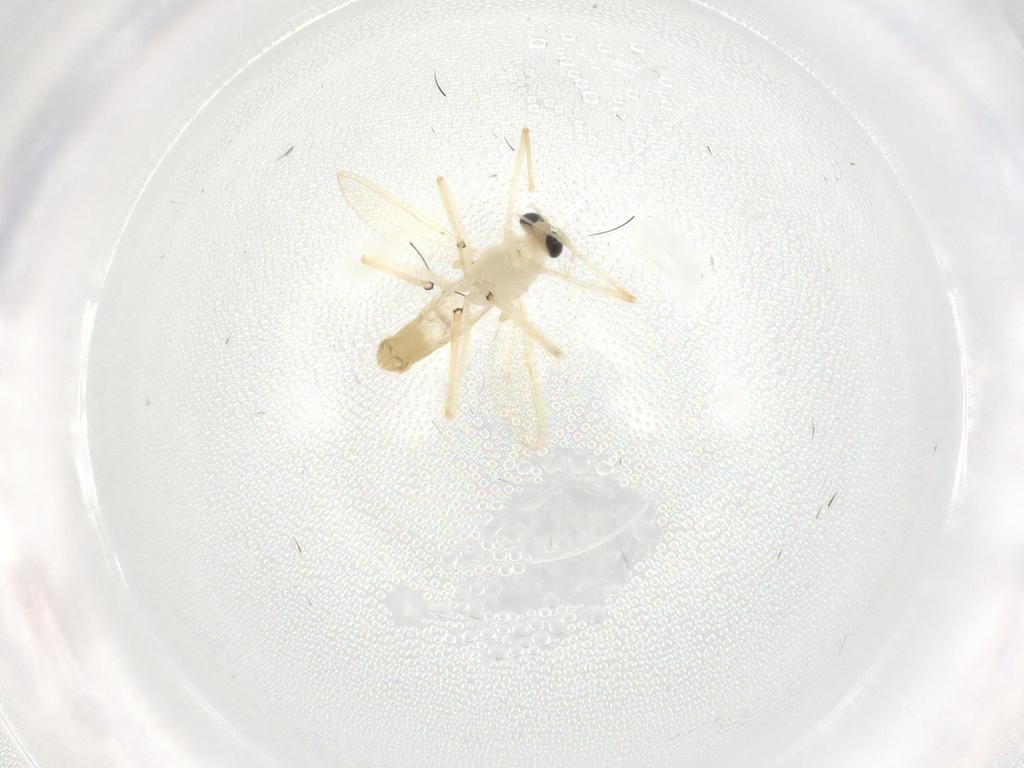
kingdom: Animalia
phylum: Arthropoda
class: Insecta
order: Diptera
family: Chironomidae
